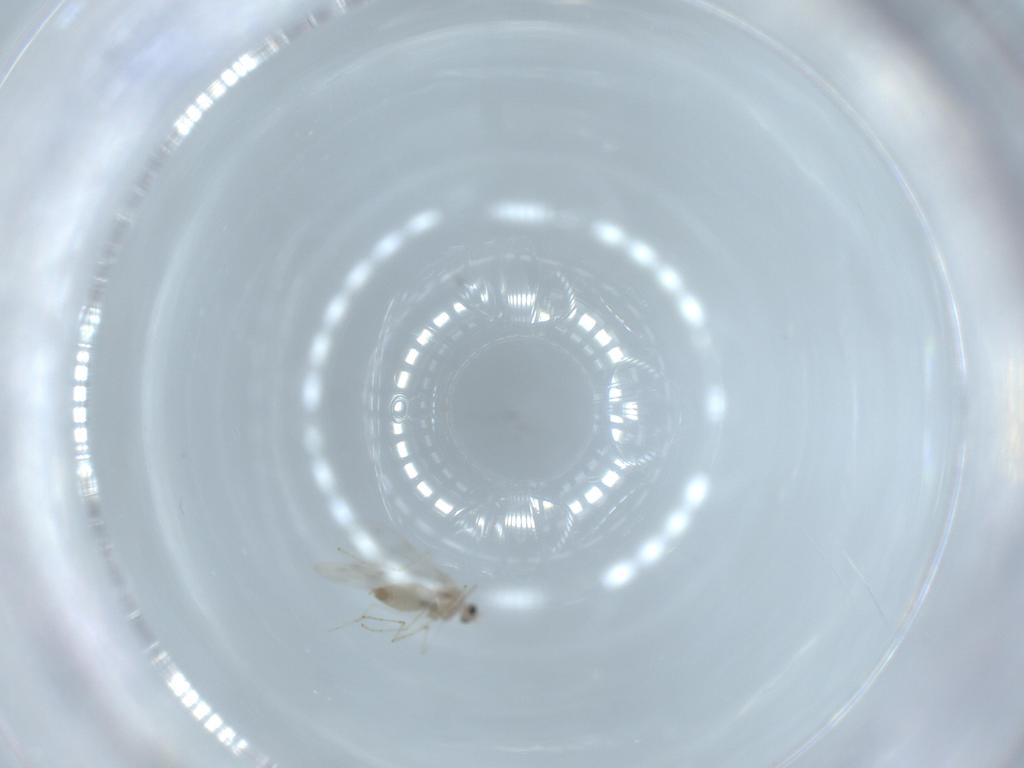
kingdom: Animalia
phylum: Arthropoda
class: Insecta
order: Diptera
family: Cecidomyiidae
